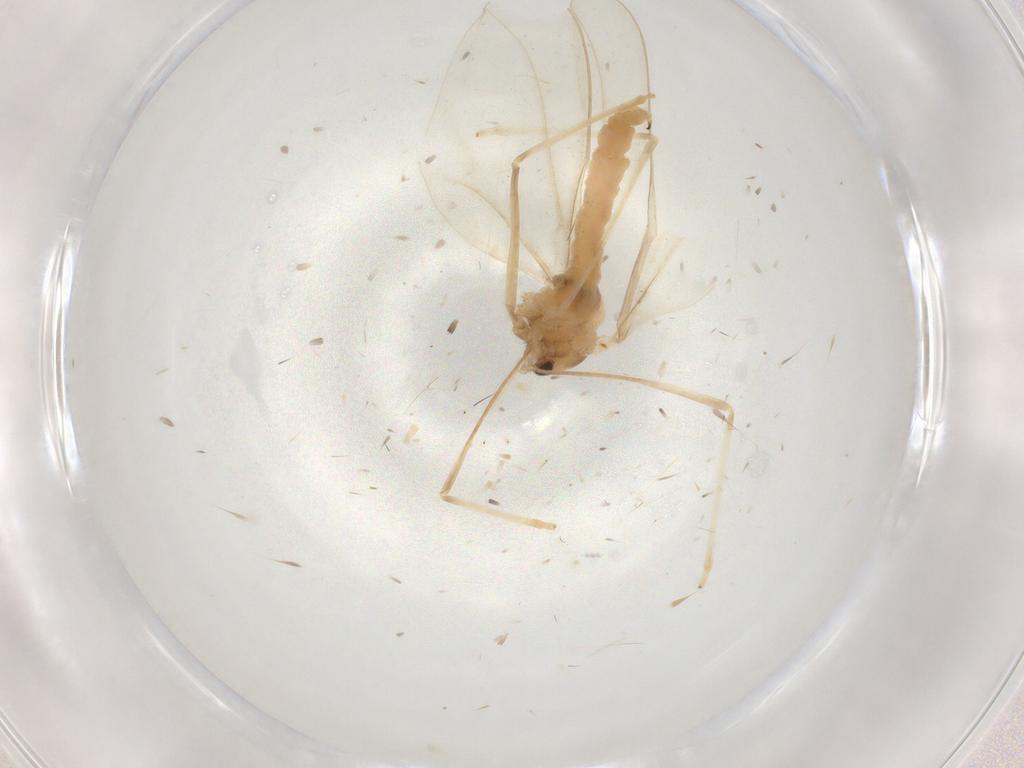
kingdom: Animalia
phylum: Arthropoda
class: Insecta
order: Diptera
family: Cecidomyiidae
